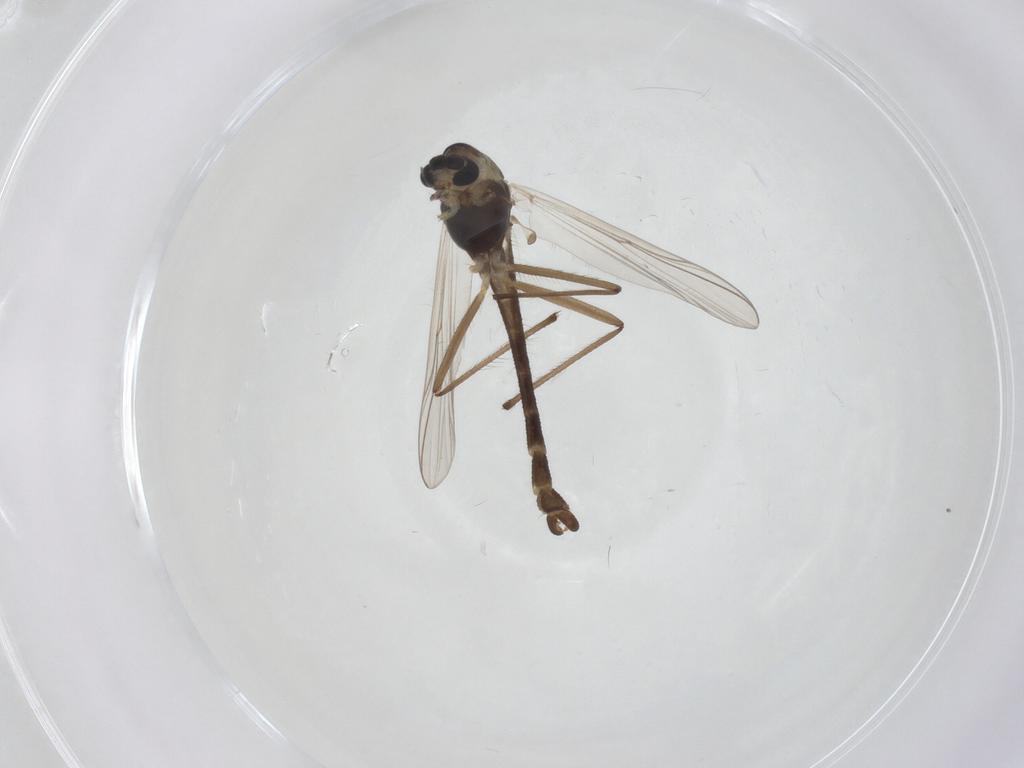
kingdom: Animalia
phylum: Arthropoda
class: Insecta
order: Diptera
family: Chironomidae
